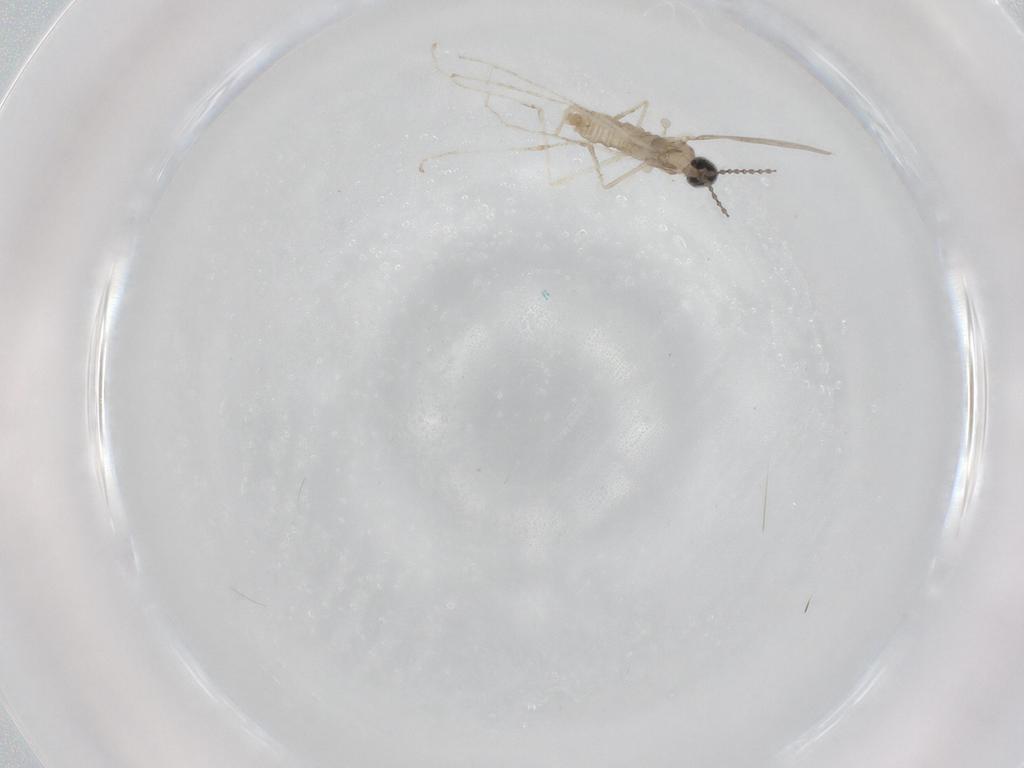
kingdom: Animalia
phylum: Arthropoda
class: Insecta
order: Diptera
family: Cecidomyiidae
